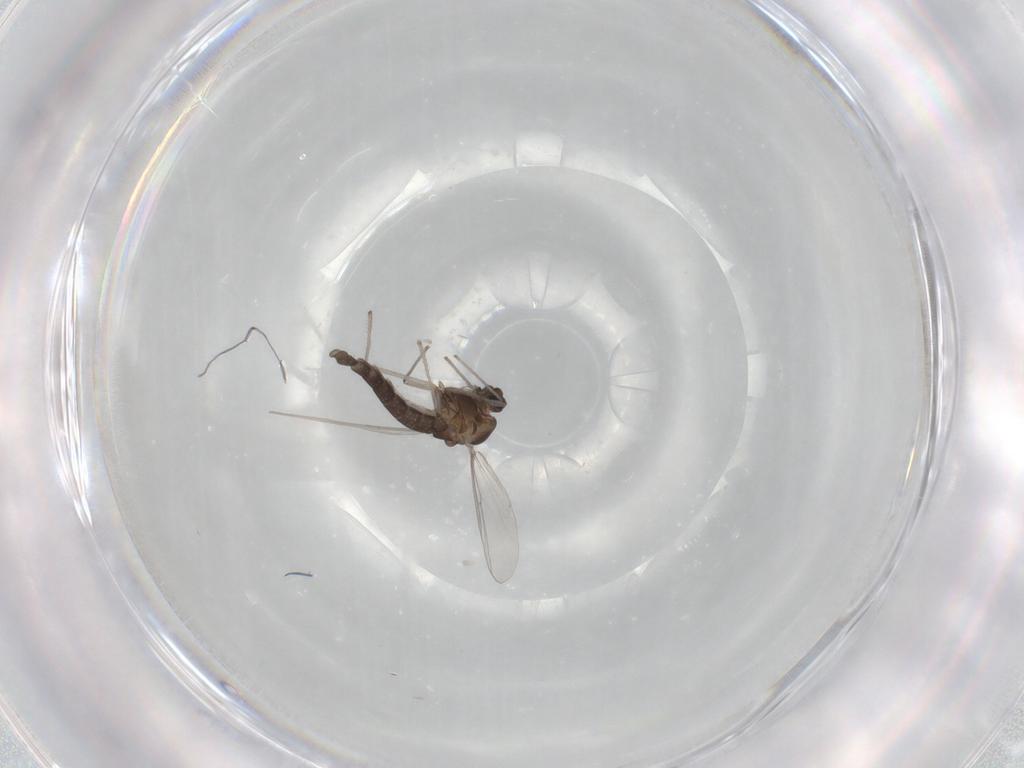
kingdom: Animalia
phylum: Arthropoda
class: Insecta
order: Diptera
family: Chironomidae
